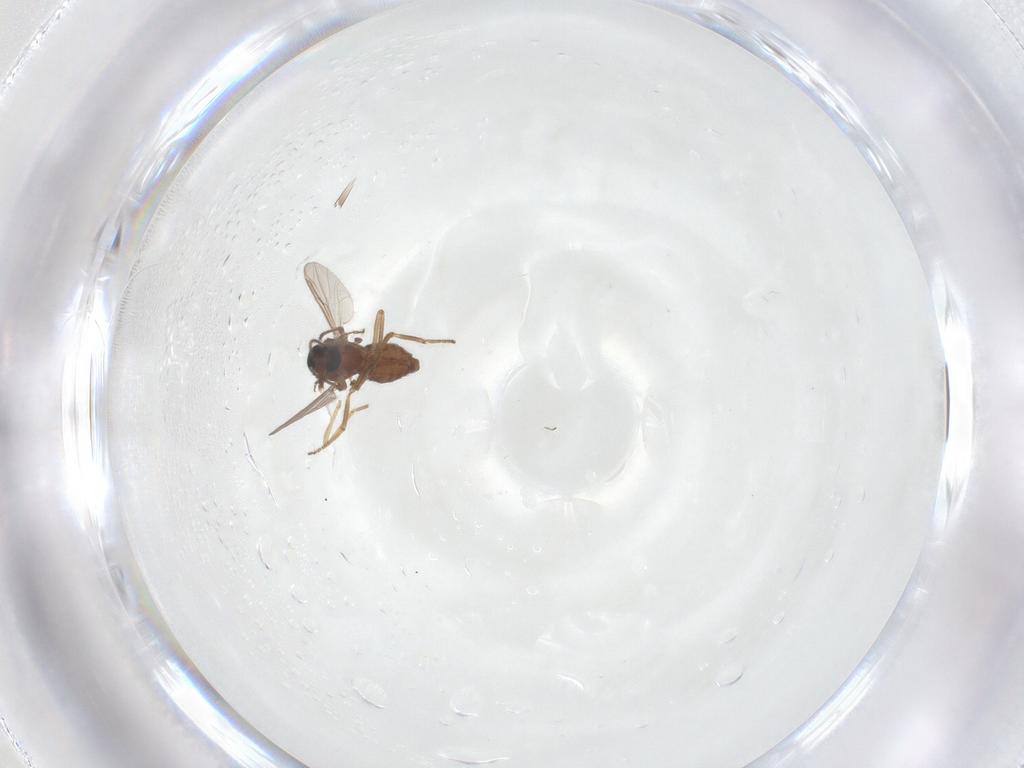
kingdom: Animalia
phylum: Arthropoda
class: Insecta
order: Diptera
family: Ceratopogonidae
